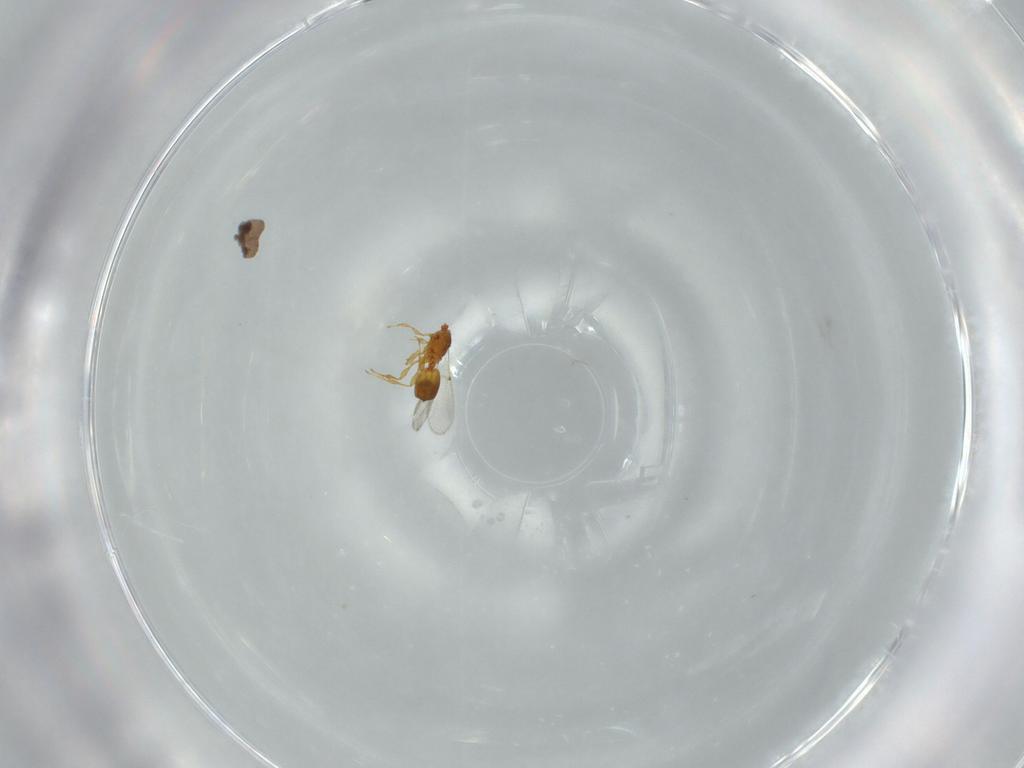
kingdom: Animalia
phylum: Arthropoda
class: Insecta
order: Hymenoptera
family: Diapriidae
